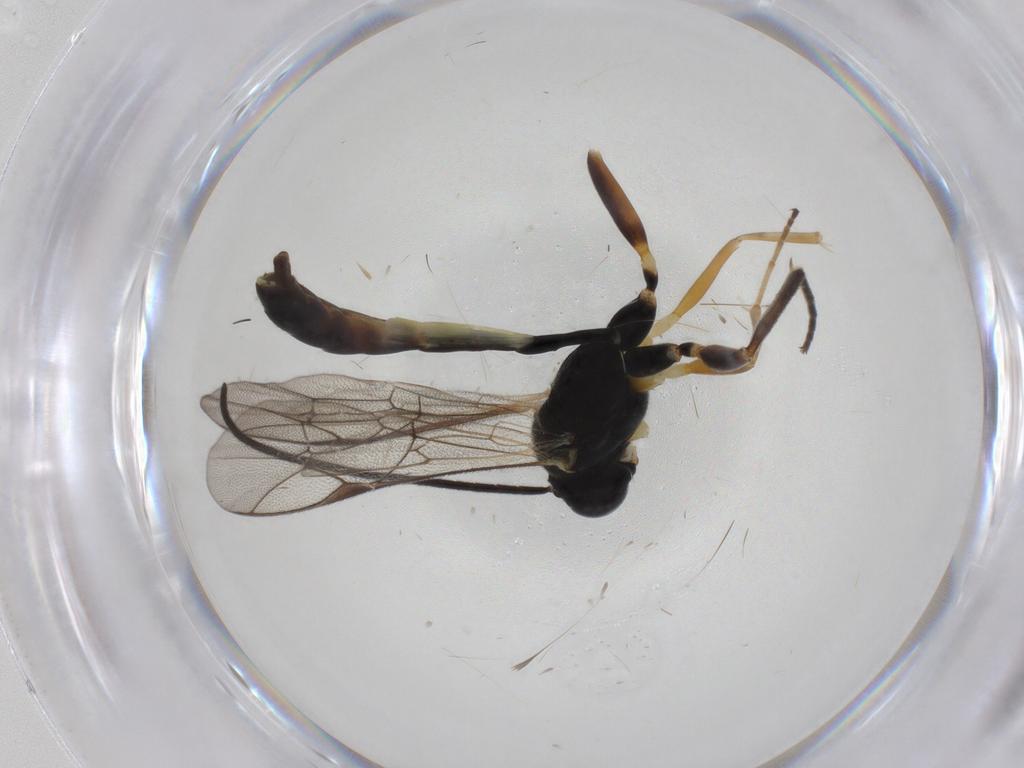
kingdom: Animalia
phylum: Arthropoda
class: Insecta
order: Hymenoptera
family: Ichneumonidae
